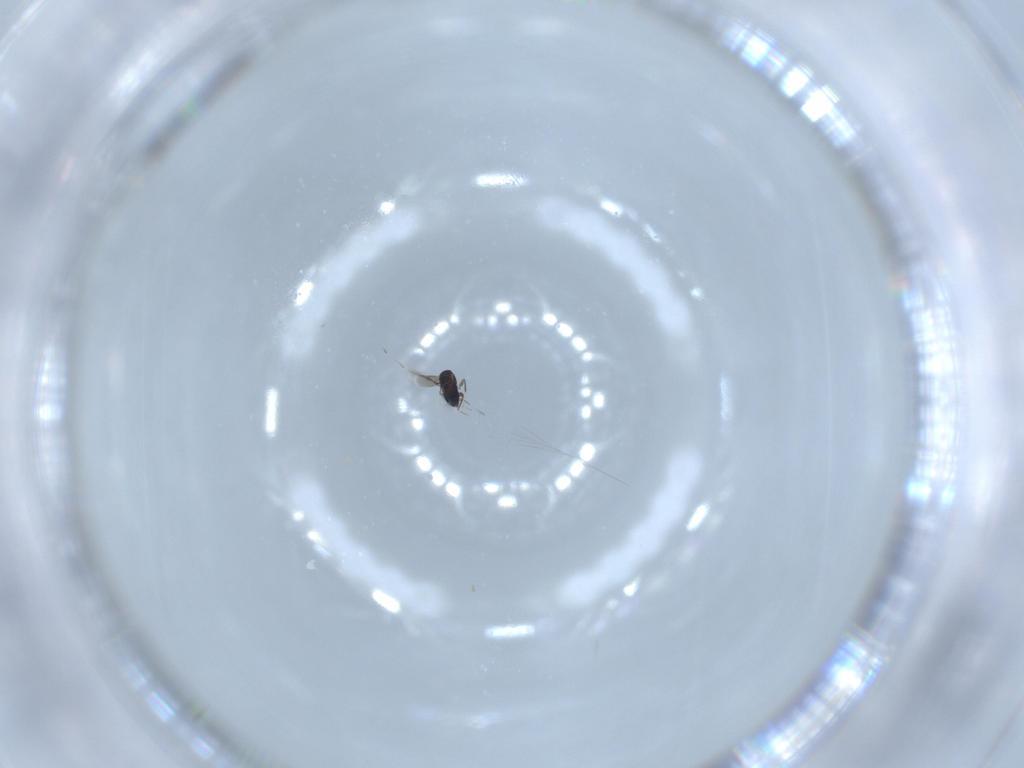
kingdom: Animalia
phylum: Arthropoda
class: Insecta
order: Hymenoptera
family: Signiphoridae
